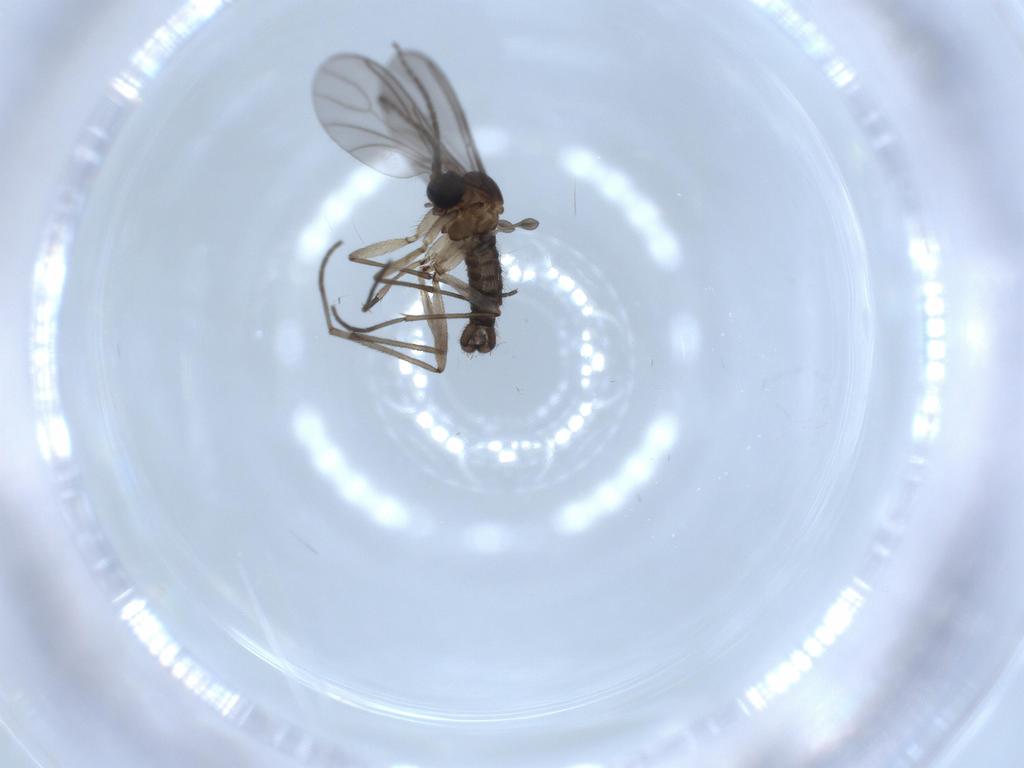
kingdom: Animalia
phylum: Arthropoda
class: Insecta
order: Diptera
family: Sciaridae
